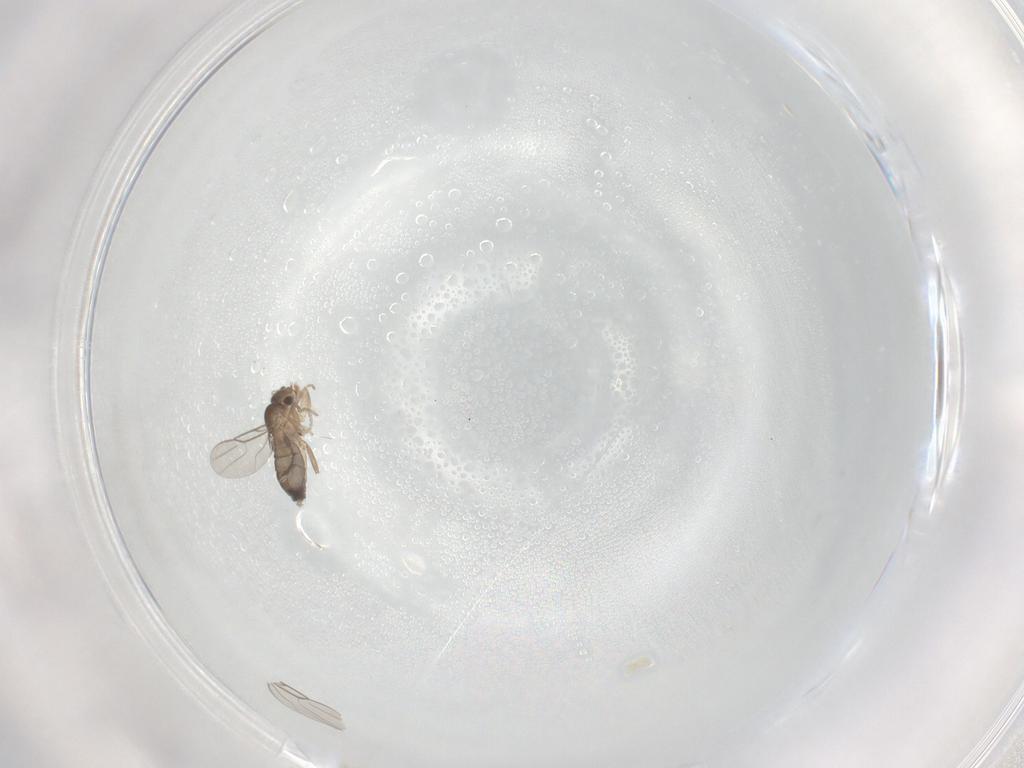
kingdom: Animalia
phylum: Arthropoda
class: Insecta
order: Diptera
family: Phoridae
